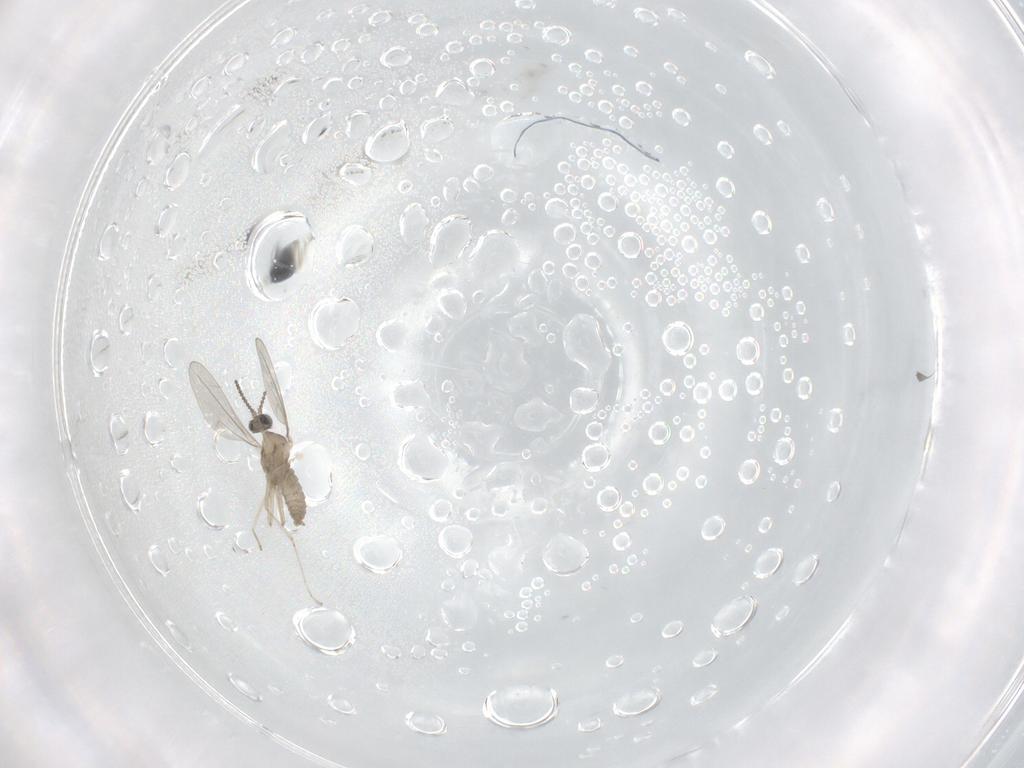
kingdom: Animalia
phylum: Arthropoda
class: Insecta
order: Diptera
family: Cecidomyiidae
